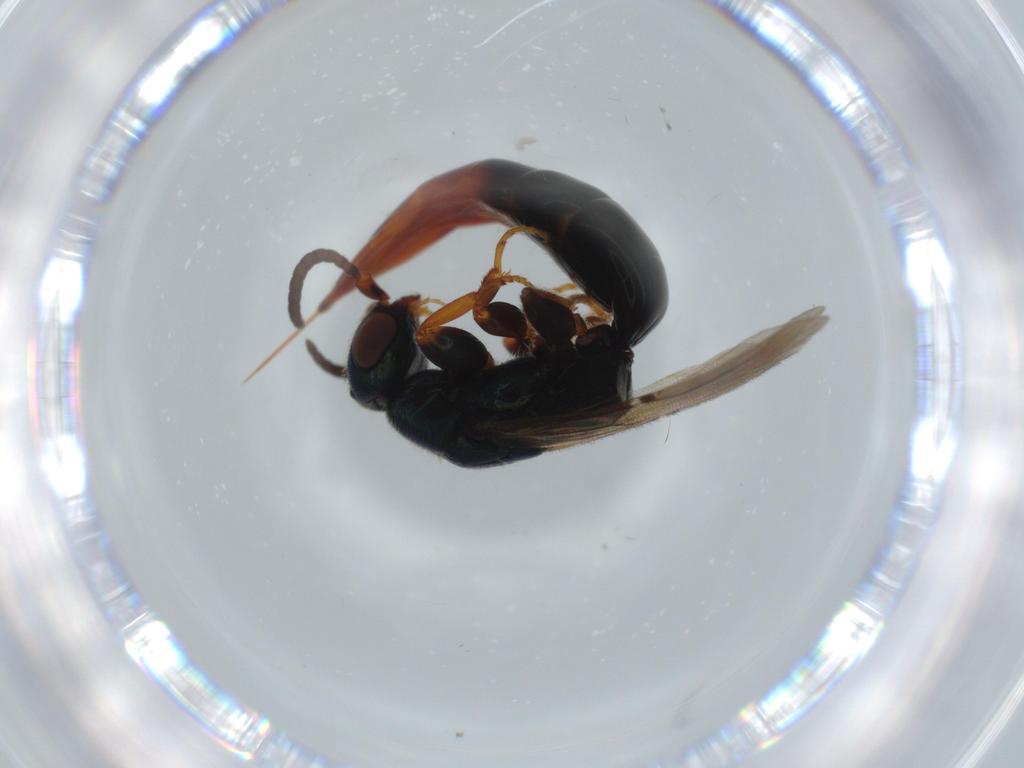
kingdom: Animalia
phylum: Arthropoda
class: Insecta
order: Hymenoptera
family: Bethylidae
